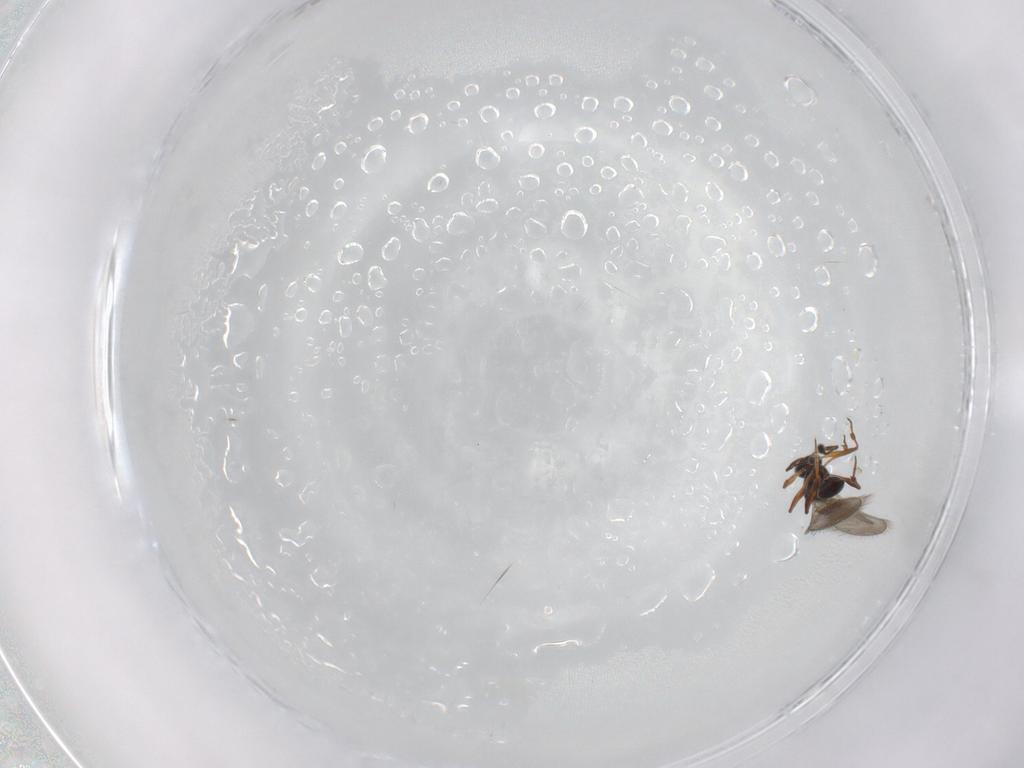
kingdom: Animalia
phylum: Arthropoda
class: Insecta
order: Hymenoptera
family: Platygastridae
